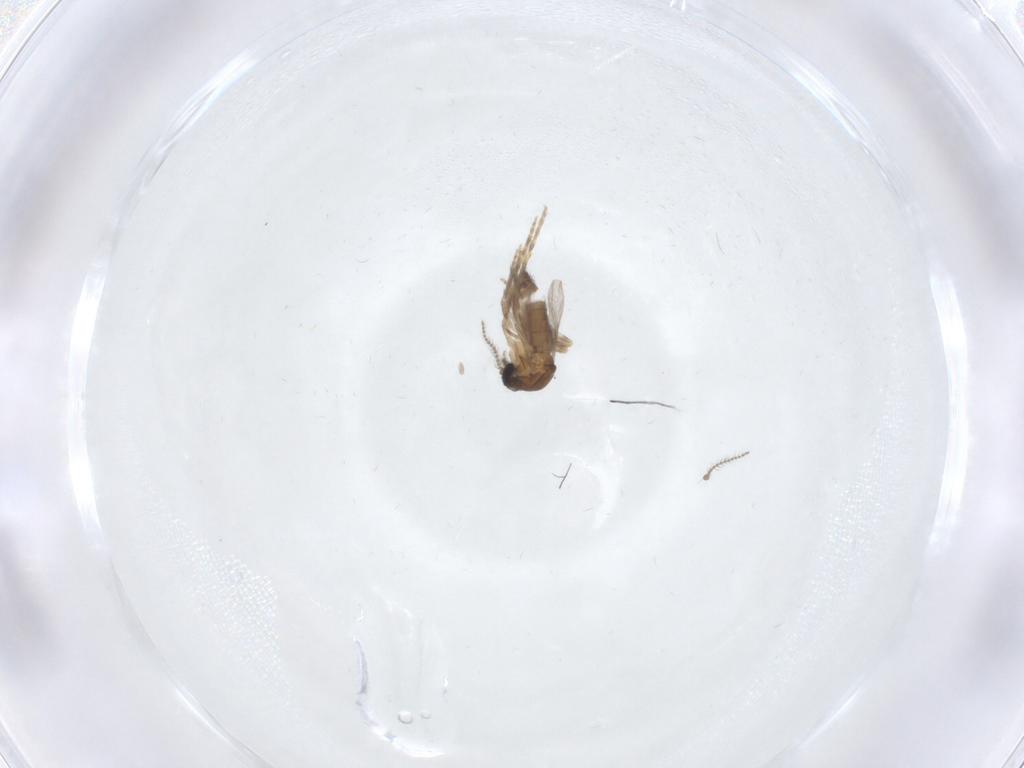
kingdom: Animalia
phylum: Arthropoda
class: Insecta
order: Diptera
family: Ceratopogonidae
